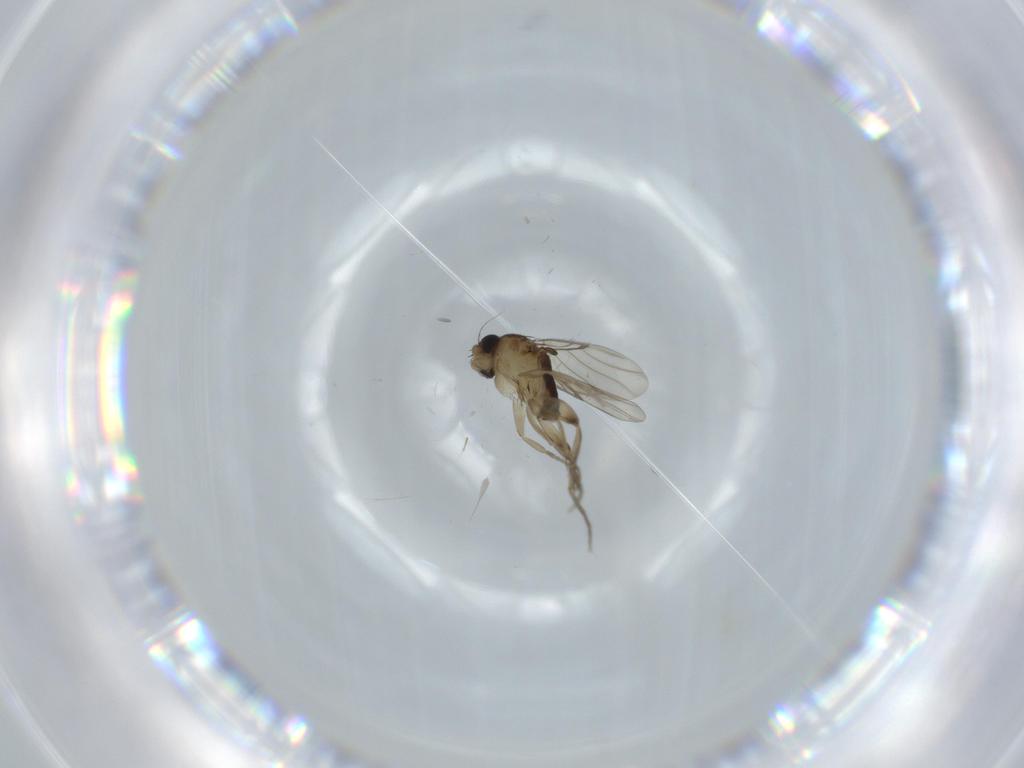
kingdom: Animalia
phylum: Arthropoda
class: Insecta
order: Diptera
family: Phoridae
